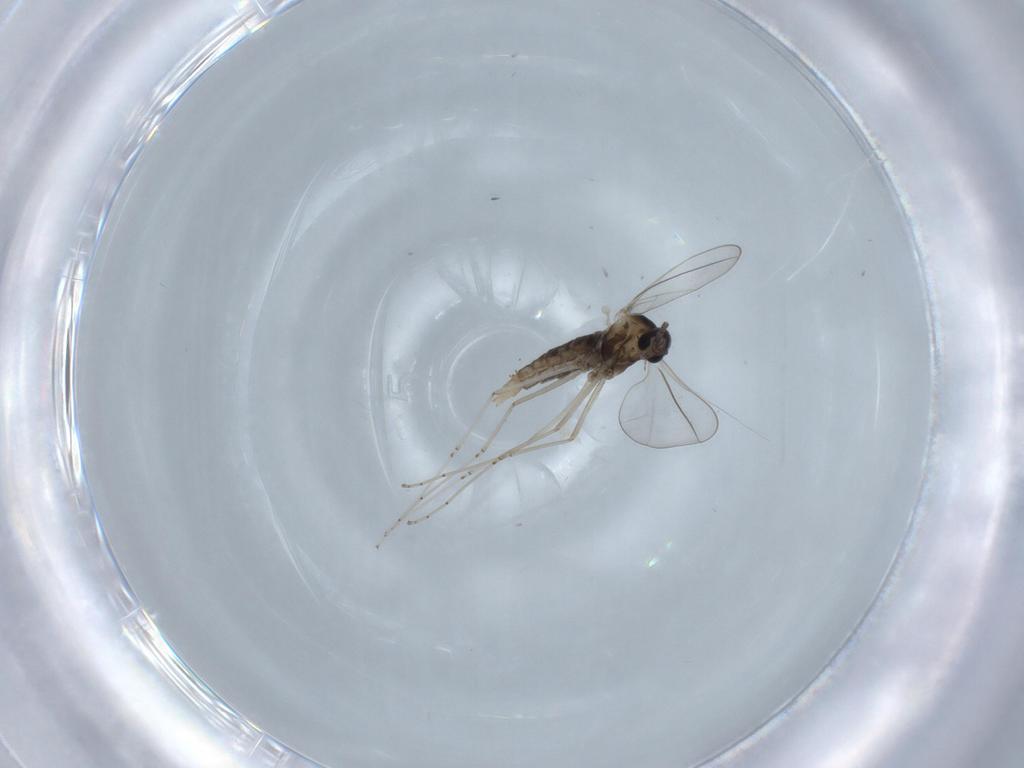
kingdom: Animalia
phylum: Arthropoda
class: Insecta
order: Diptera
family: Cecidomyiidae
